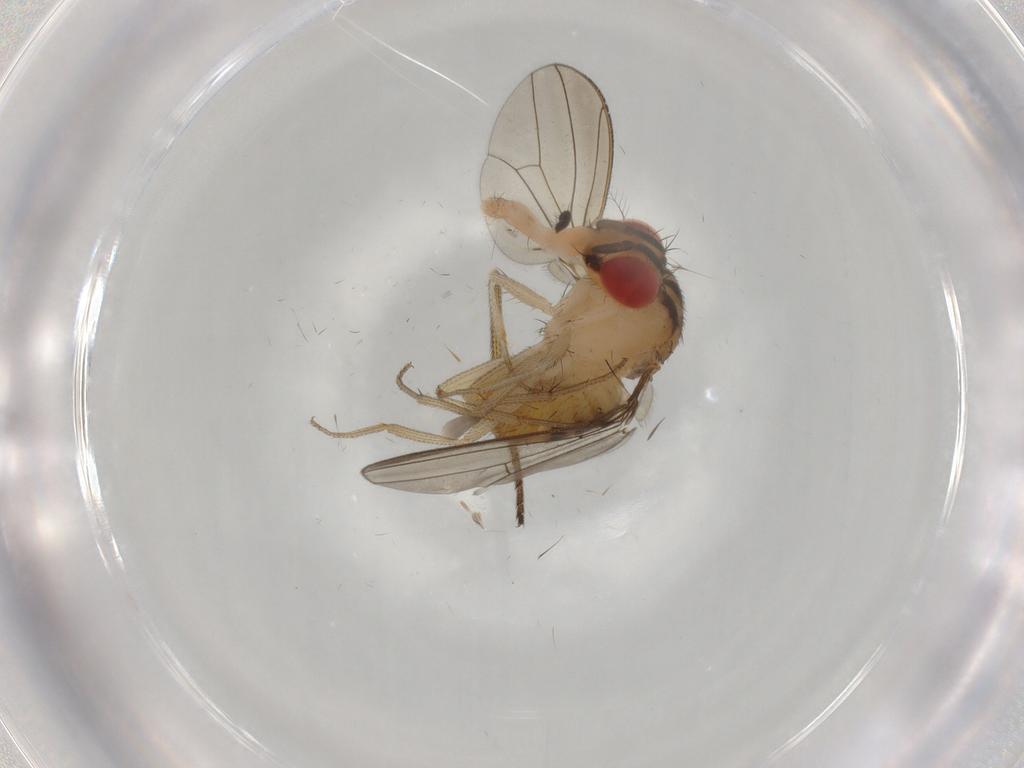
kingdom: Animalia
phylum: Arthropoda
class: Insecta
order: Diptera
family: Drosophilidae
